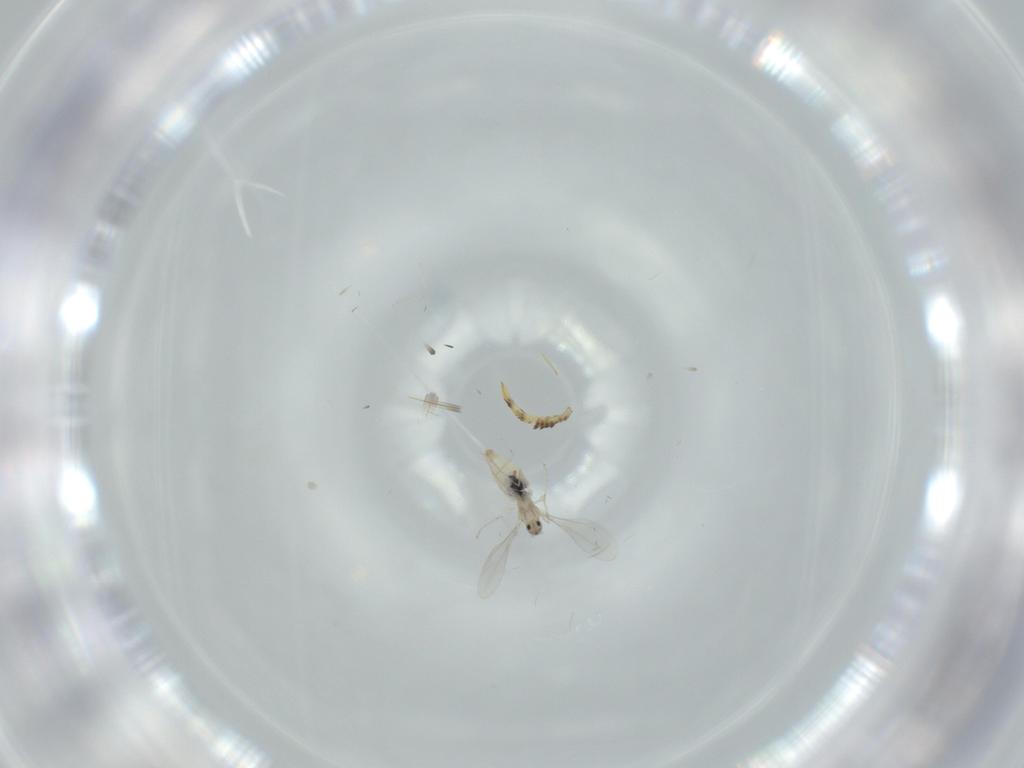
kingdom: Animalia
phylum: Arthropoda
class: Insecta
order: Diptera
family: Cecidomyiidae
